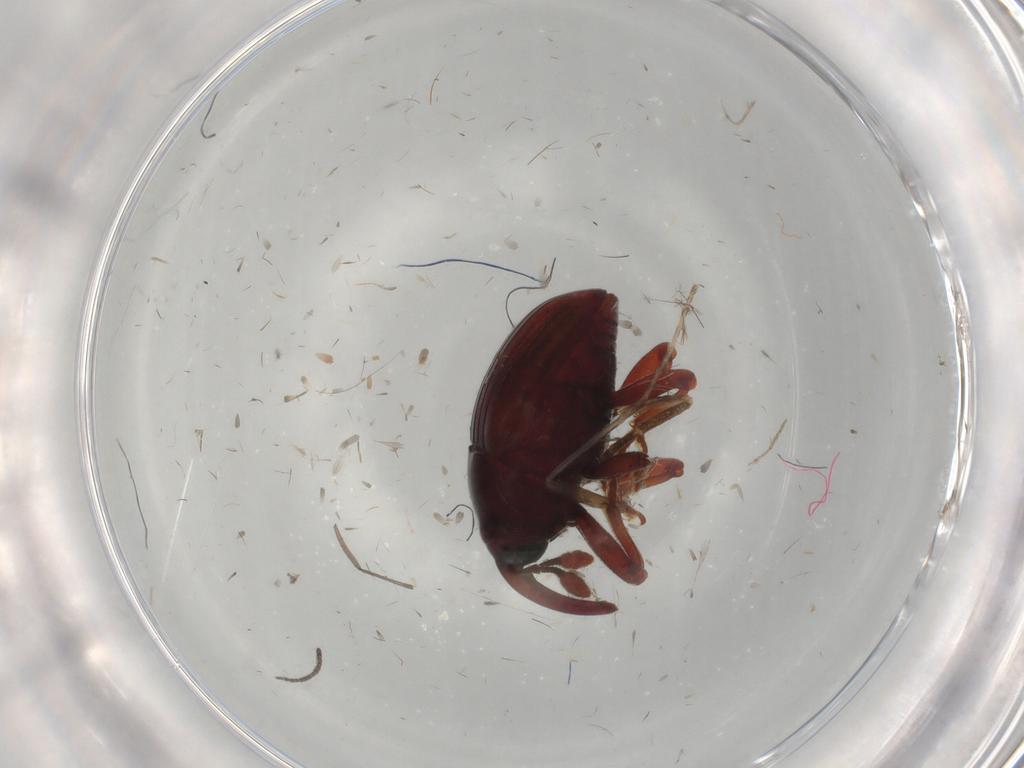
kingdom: Animalia
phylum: Arthropoda
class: Insecta
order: Coleoptera
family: Curculionidae
